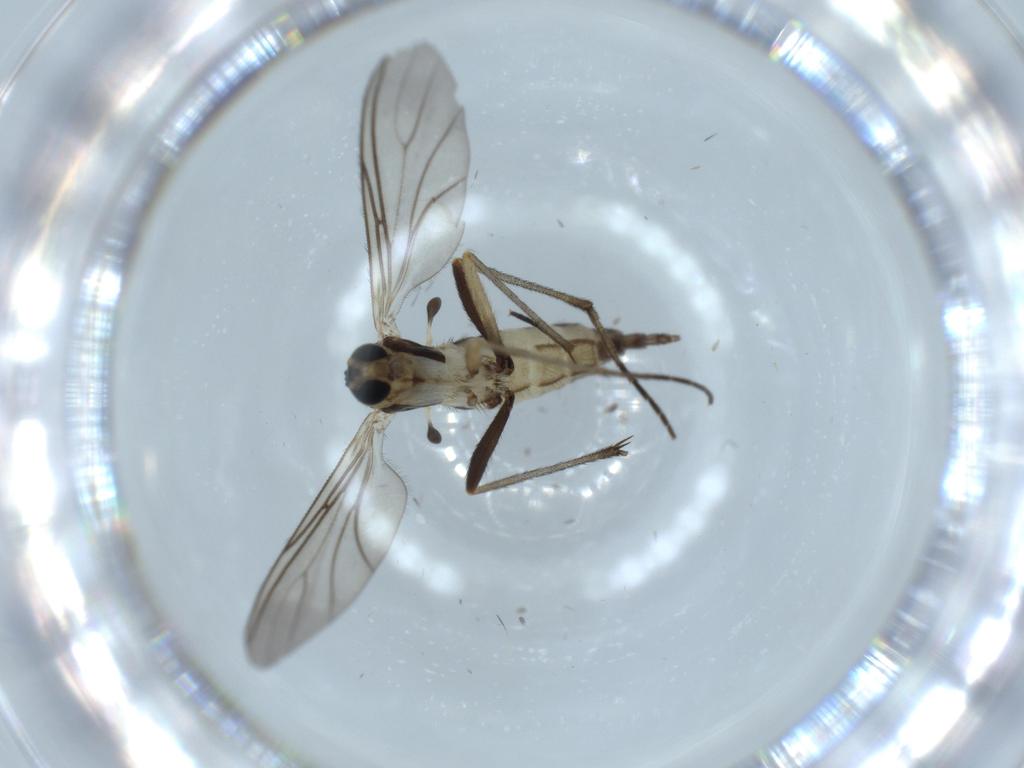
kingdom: Animalia
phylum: Arthropoda
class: Insecta
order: Diptera
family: Sciaridae
